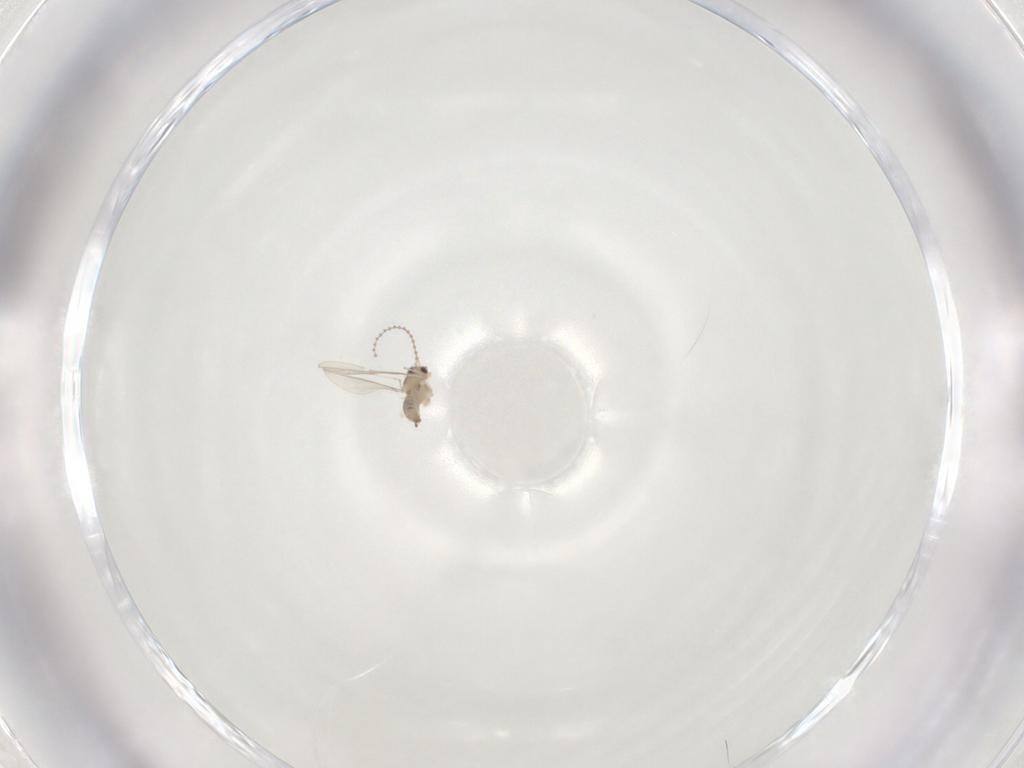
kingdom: Animalia
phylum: Arthropoda
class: Insecta
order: Diptera
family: Cecidomyiidae
